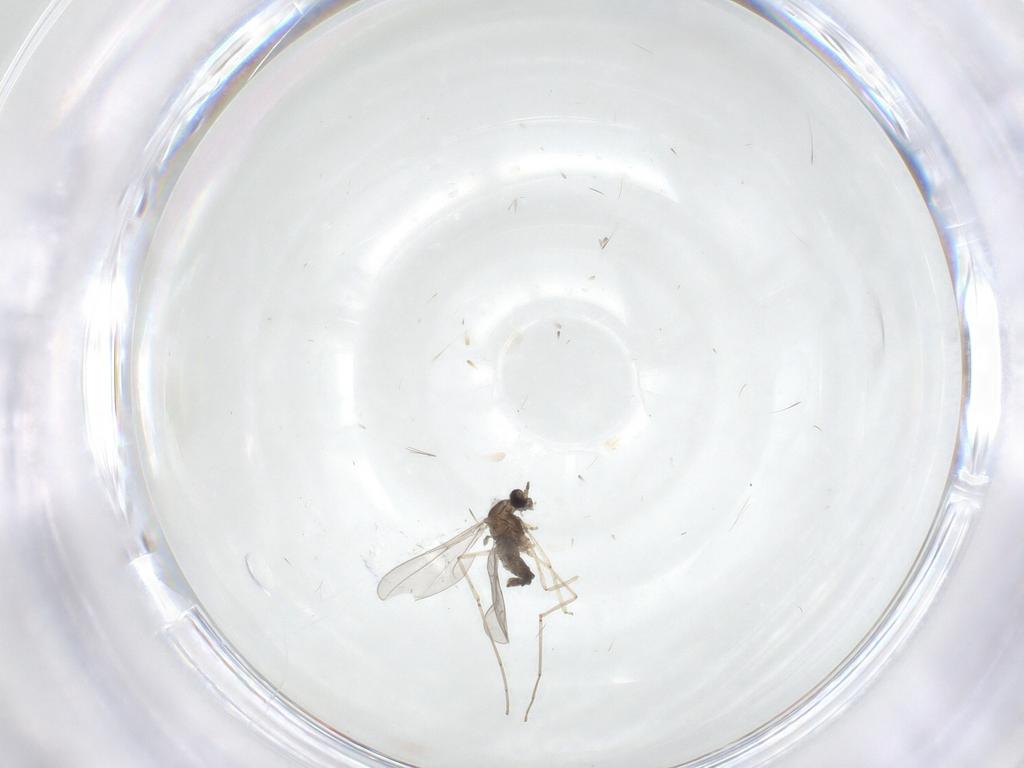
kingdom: Animalia
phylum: Arthropoda
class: Insecta
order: Diptera
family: Cecidomyiidae
